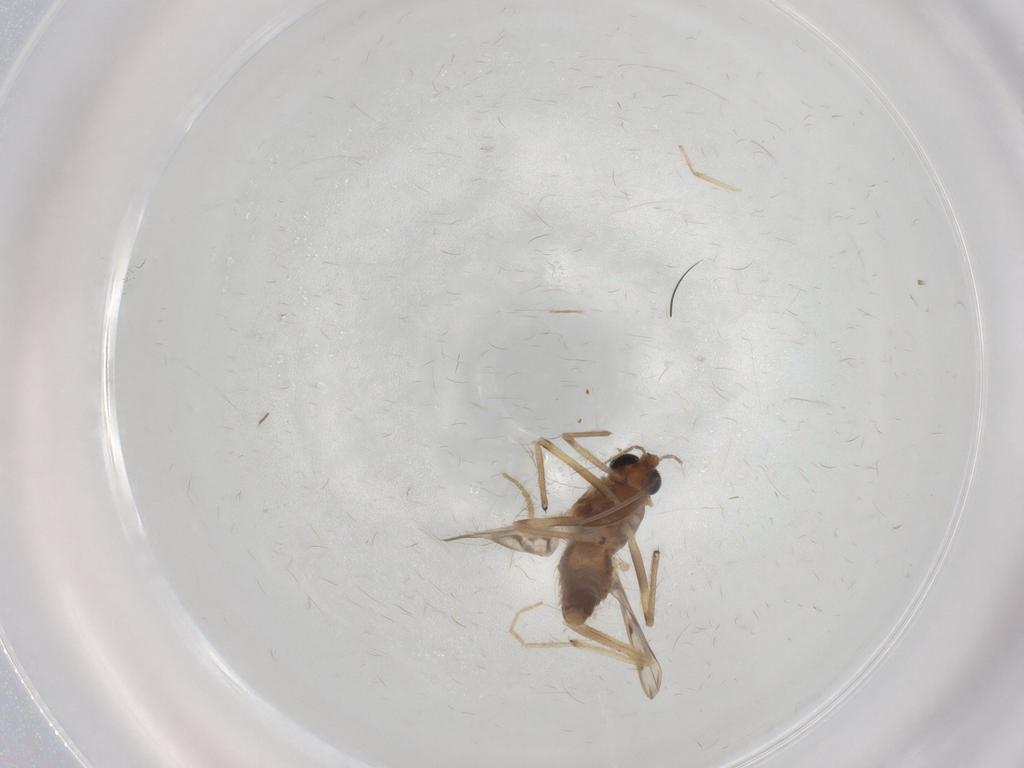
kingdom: Animalia
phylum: Arthropoda
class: Insecta
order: Diptera
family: Chironomidae
